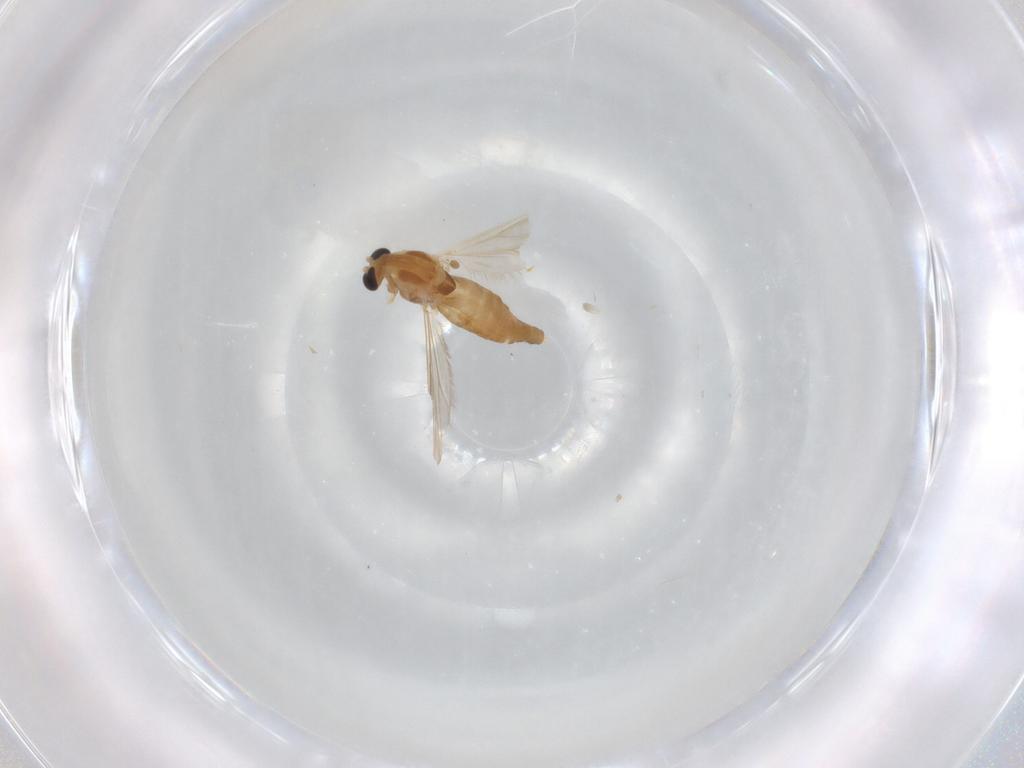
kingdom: Animalia
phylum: Arthropoda
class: Insecta
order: Diptera
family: Chironomidae
